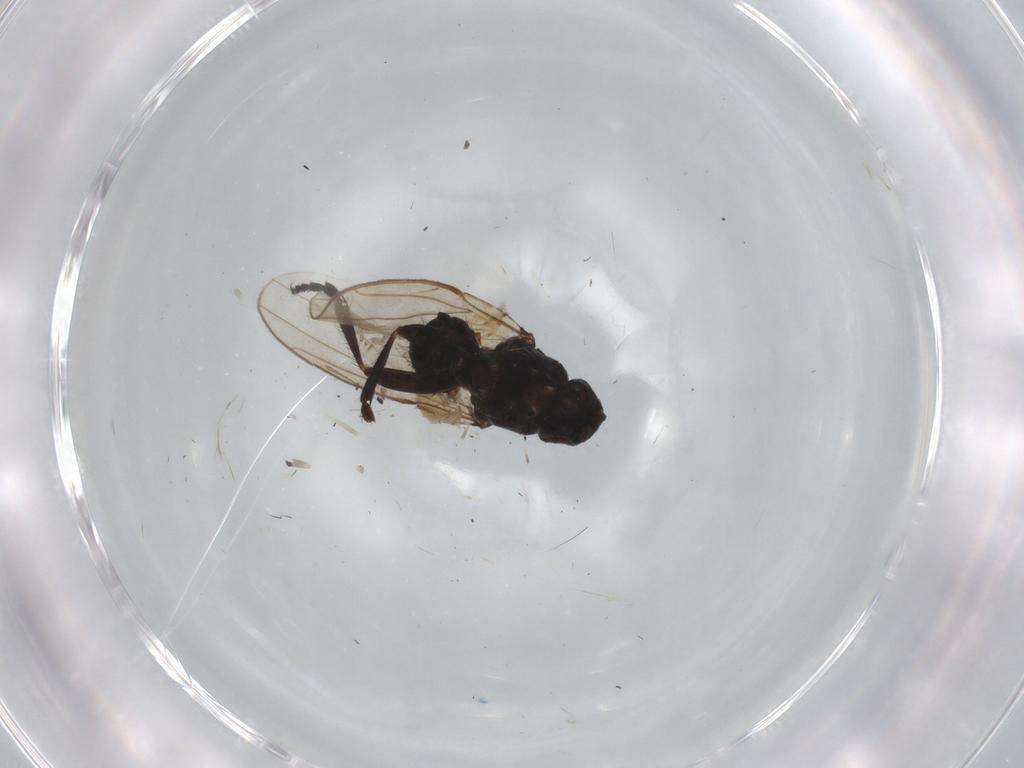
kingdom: Animalia
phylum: Arthropoda
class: Insecta
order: Diptera
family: Sphaeroceridae
